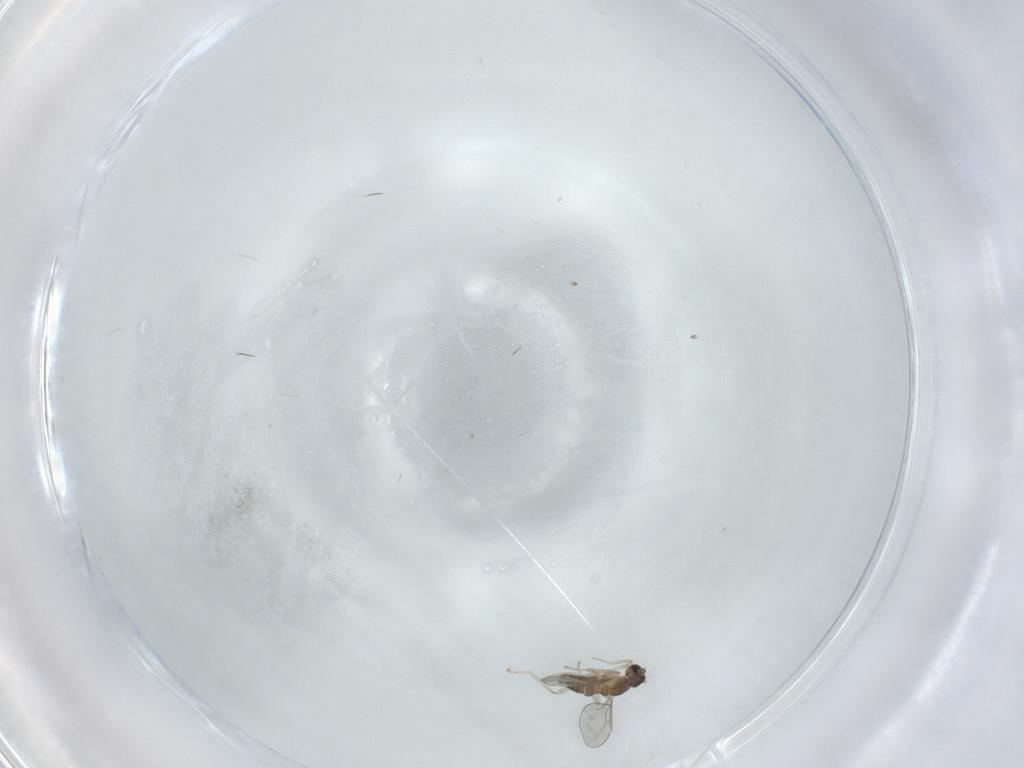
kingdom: Animalia
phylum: Arthropoda
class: Insecta
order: Diptera
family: Cecidomyiidae
